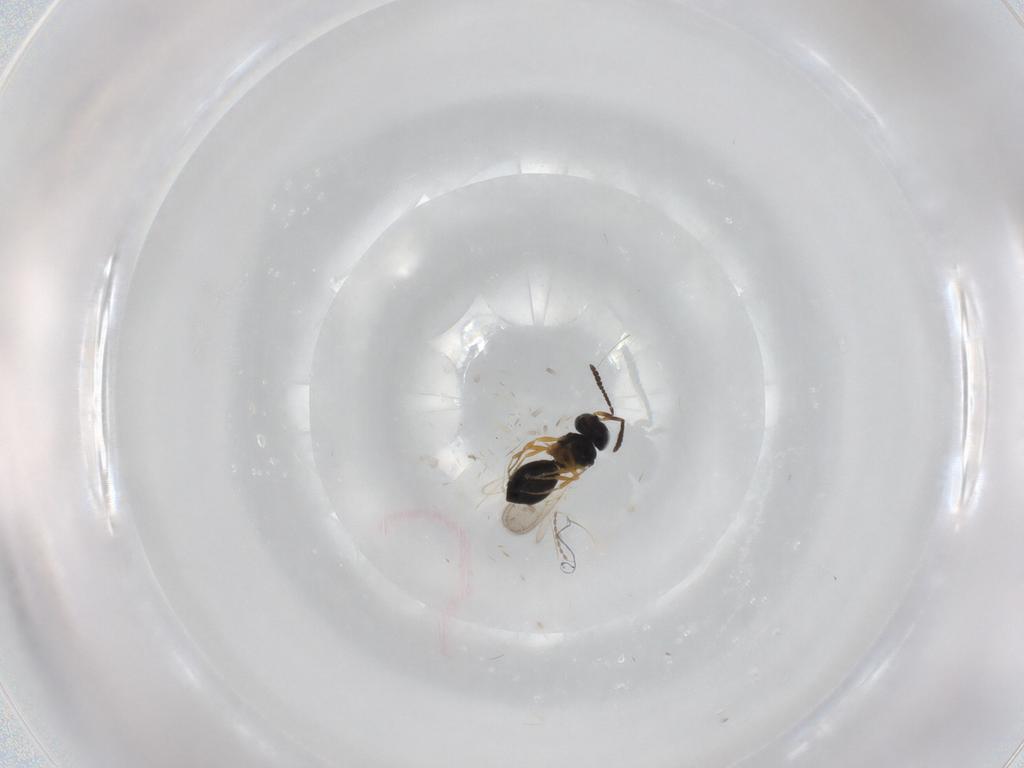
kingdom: Animalia
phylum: Arthropoda
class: Insecta
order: Hymenoptera
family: Scelionidae
